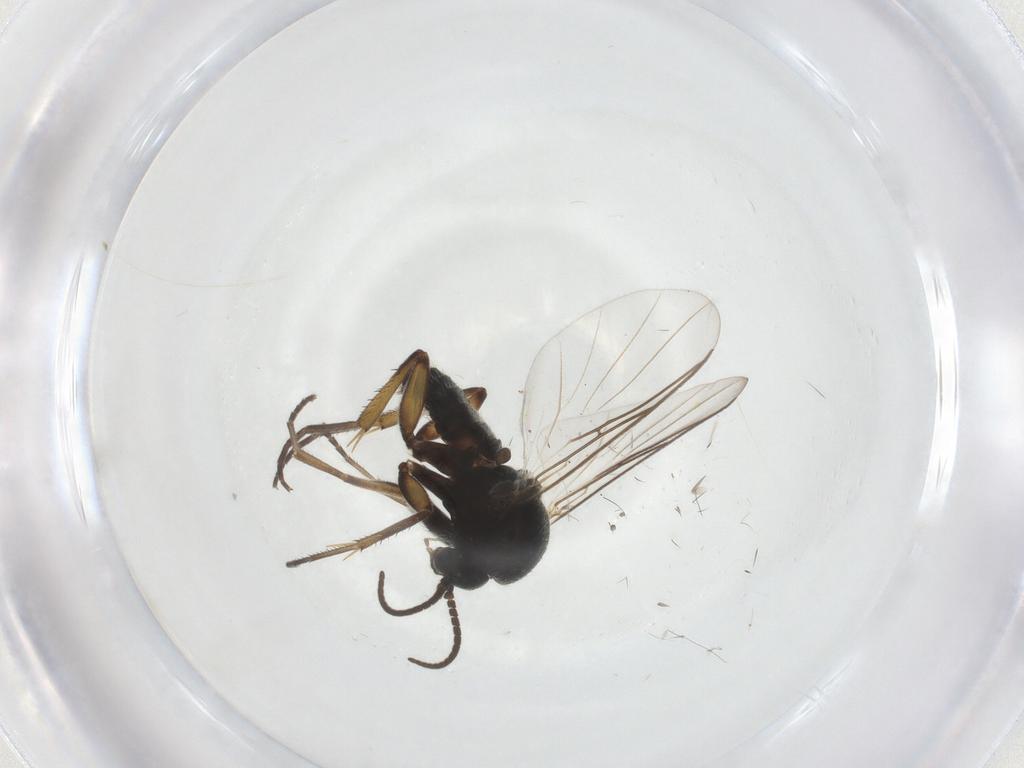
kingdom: Animalia
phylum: Arthropoda
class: Insecta
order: Diptera
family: Mycetophilidae
